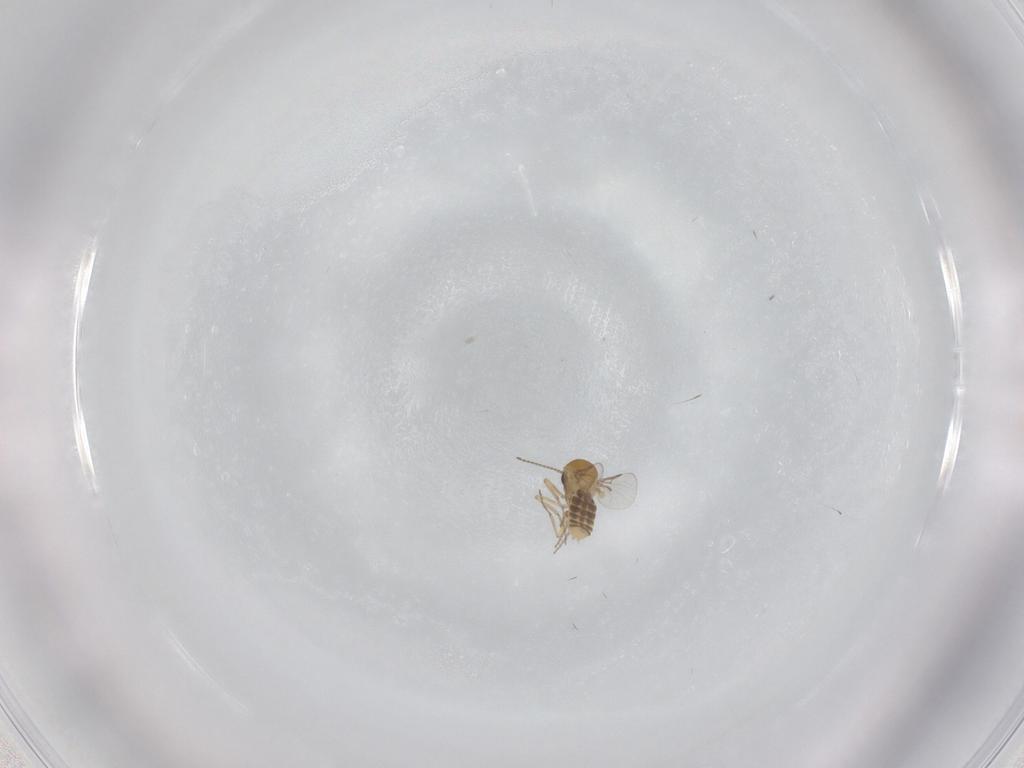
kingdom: Animalia
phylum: Arthropoda
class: Insecta
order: Diptera
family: Ceratopogonidae
